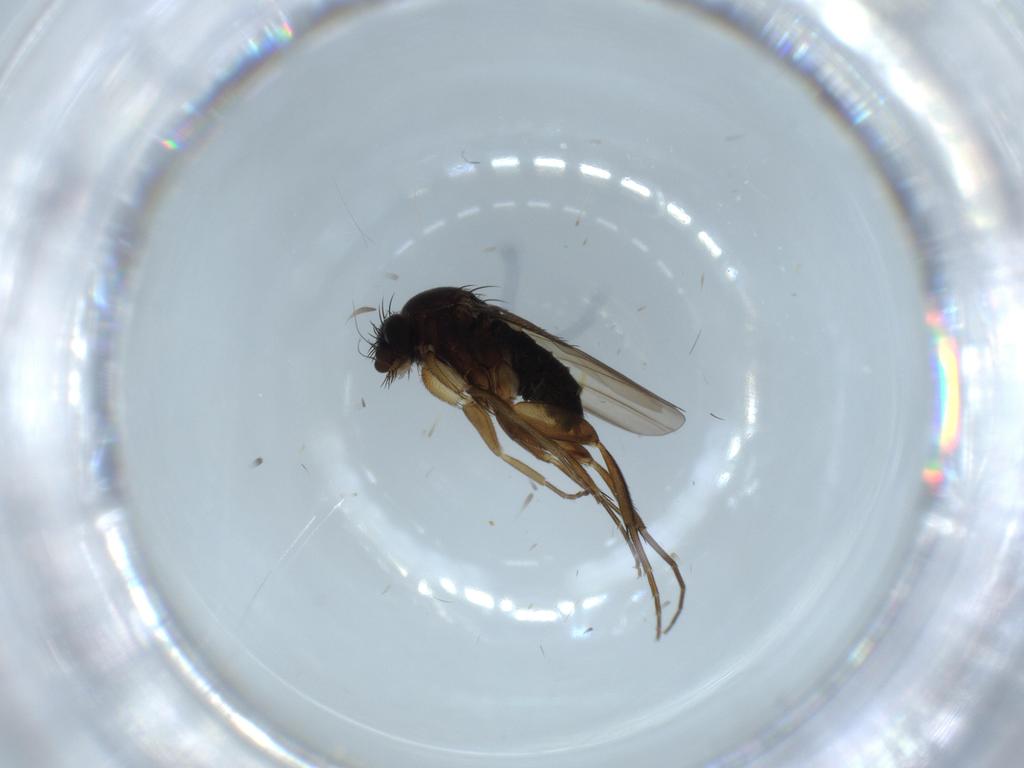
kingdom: Animalia
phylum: Arthropoda
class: Insecta
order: Diptera
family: Phoridae
